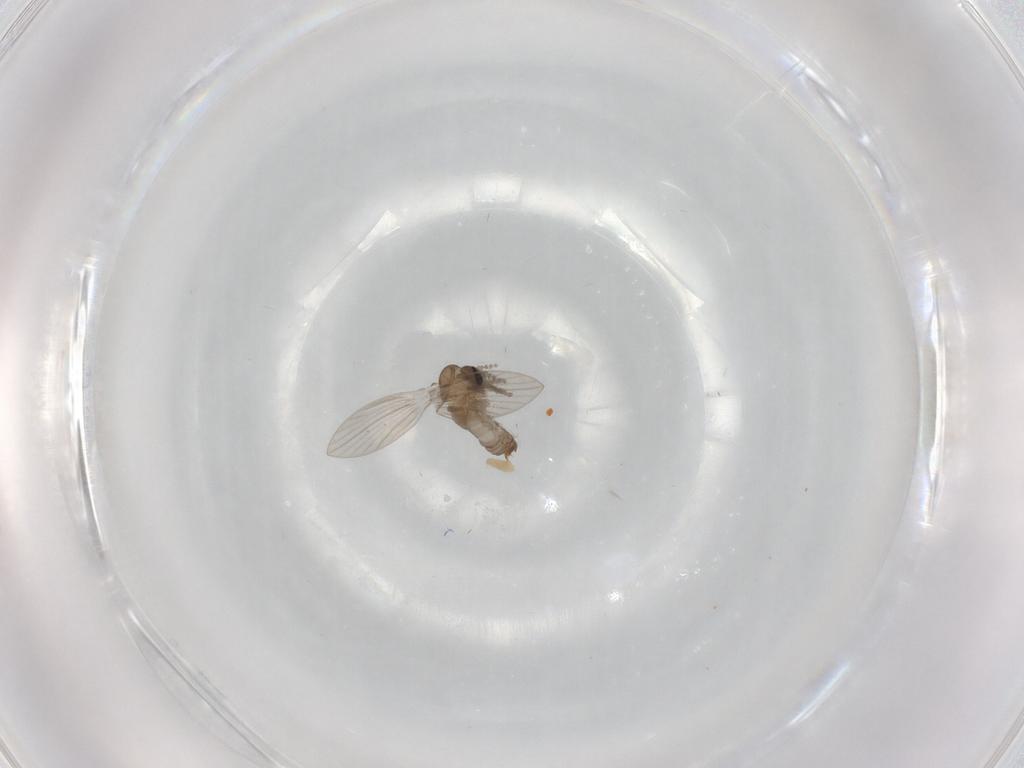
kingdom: Animalia
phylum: Arthropoda
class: Insecta
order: Diptera
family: Psychodidae
